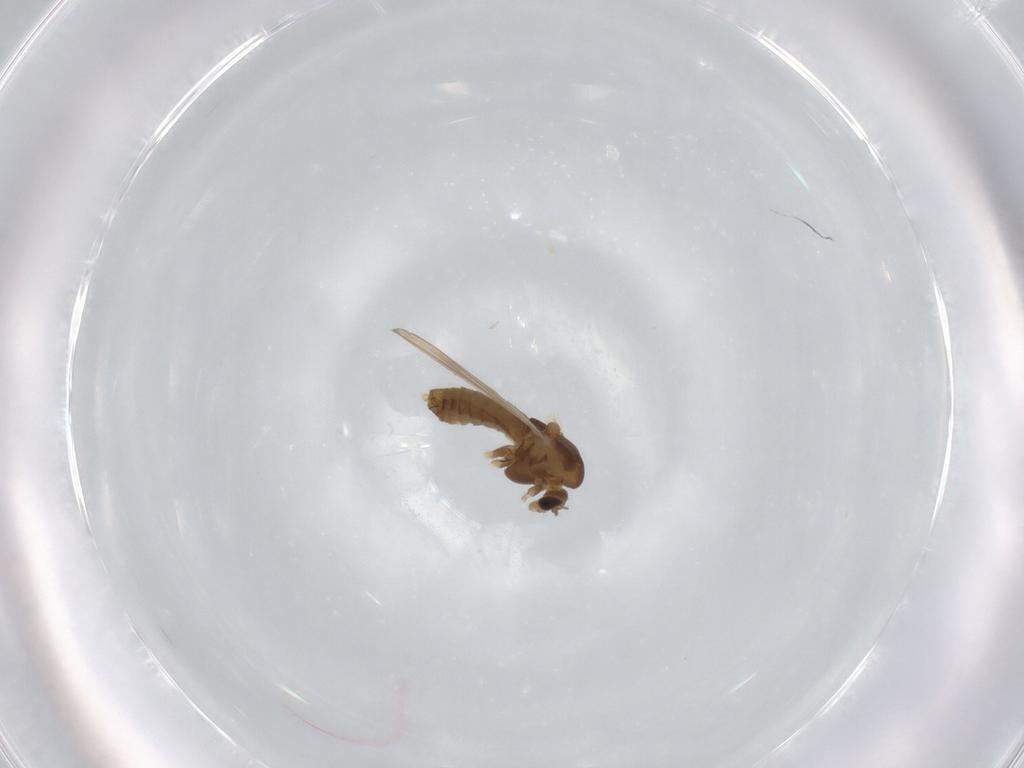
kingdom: Animalia
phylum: Arthropoda
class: Insecta
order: Diptera
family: Chironomidae
